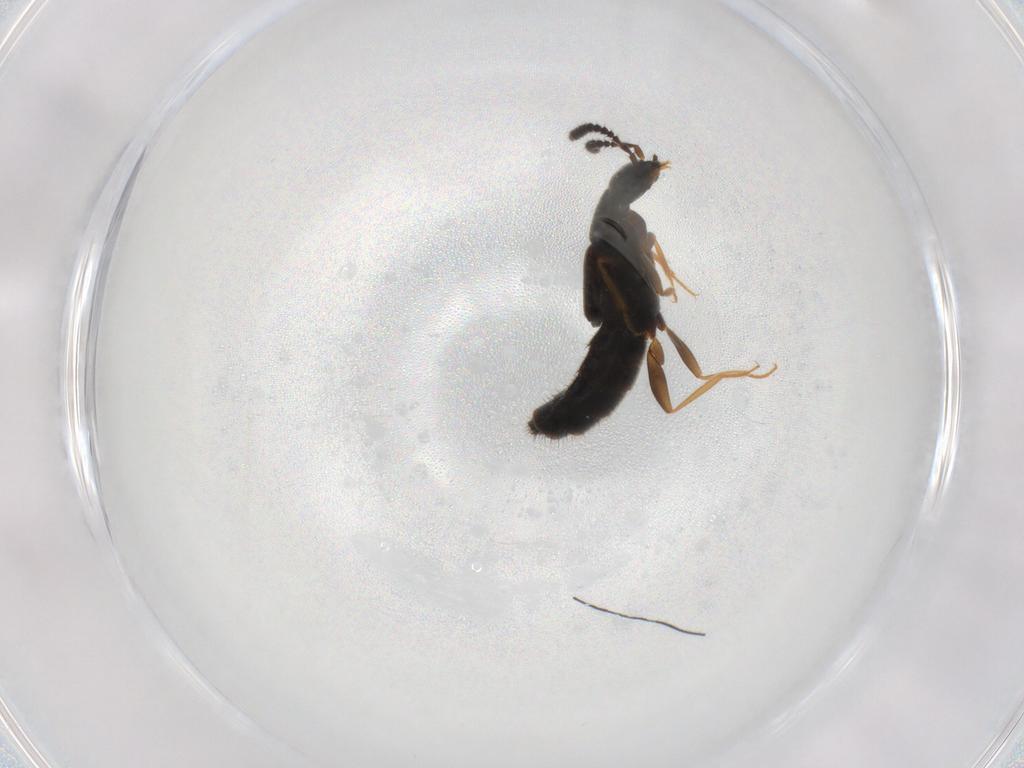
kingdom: Animalia
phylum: Arthropoda
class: Insecta
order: Coleoptera
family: Staphylinidae
